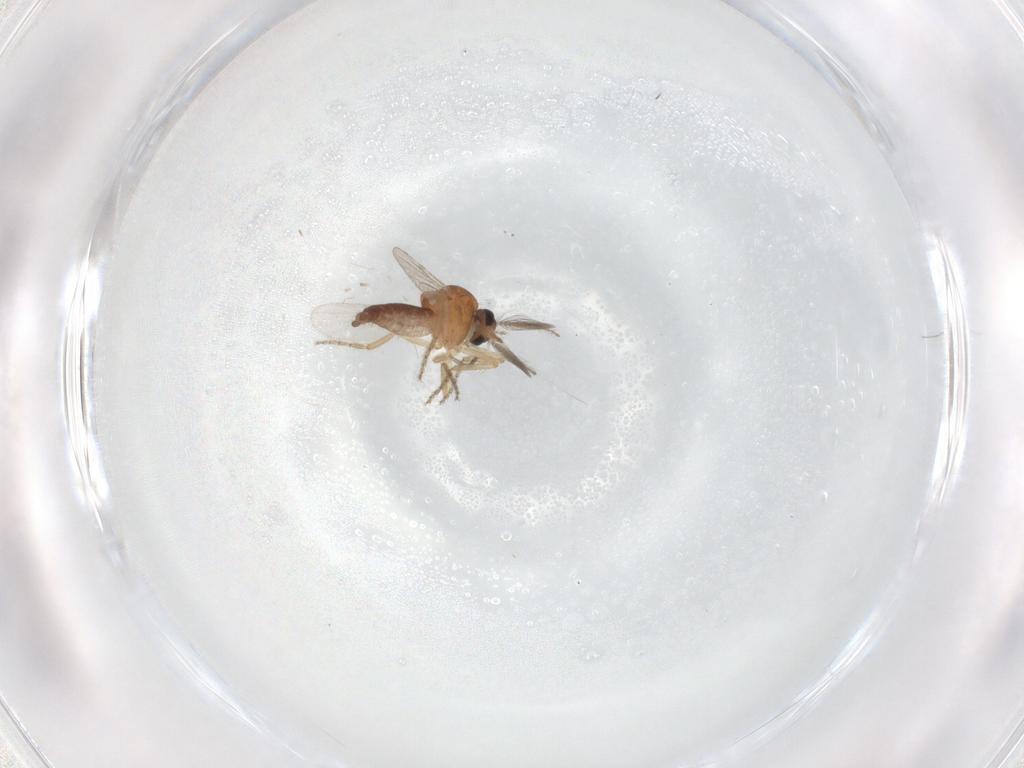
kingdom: Animalia
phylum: Arthropoda
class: Insecta
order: Diptera
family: Ceratopogonidae
